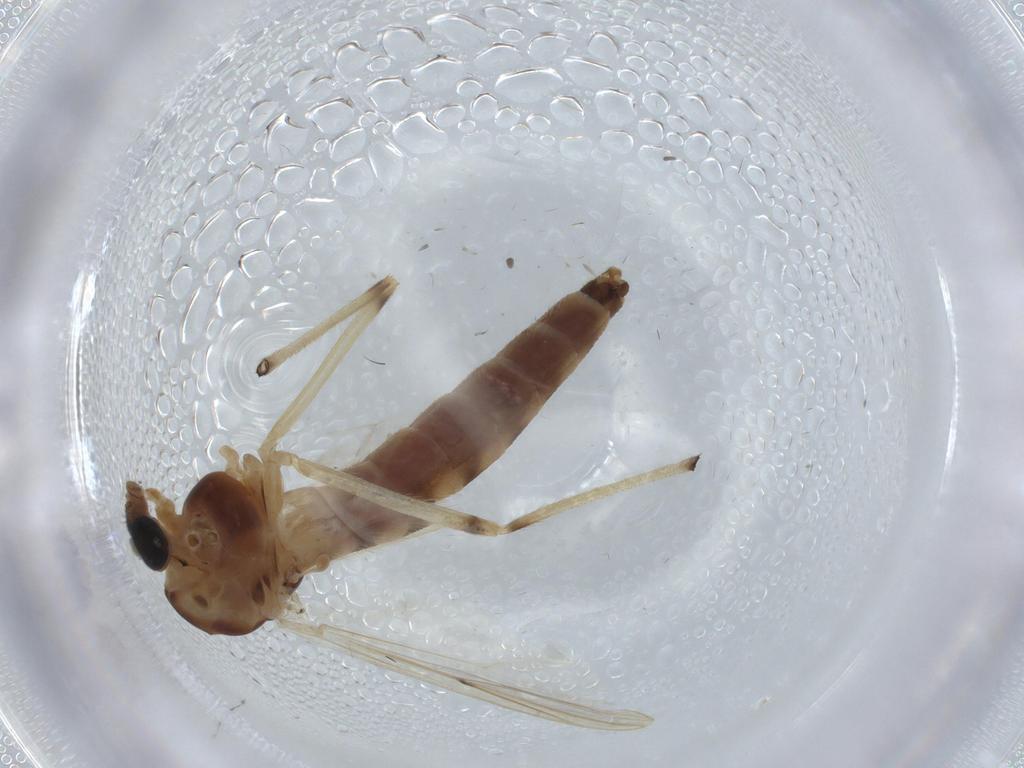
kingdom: Animalia
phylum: Arthropoda
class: Insecta
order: Diptera
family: Chironomidae
